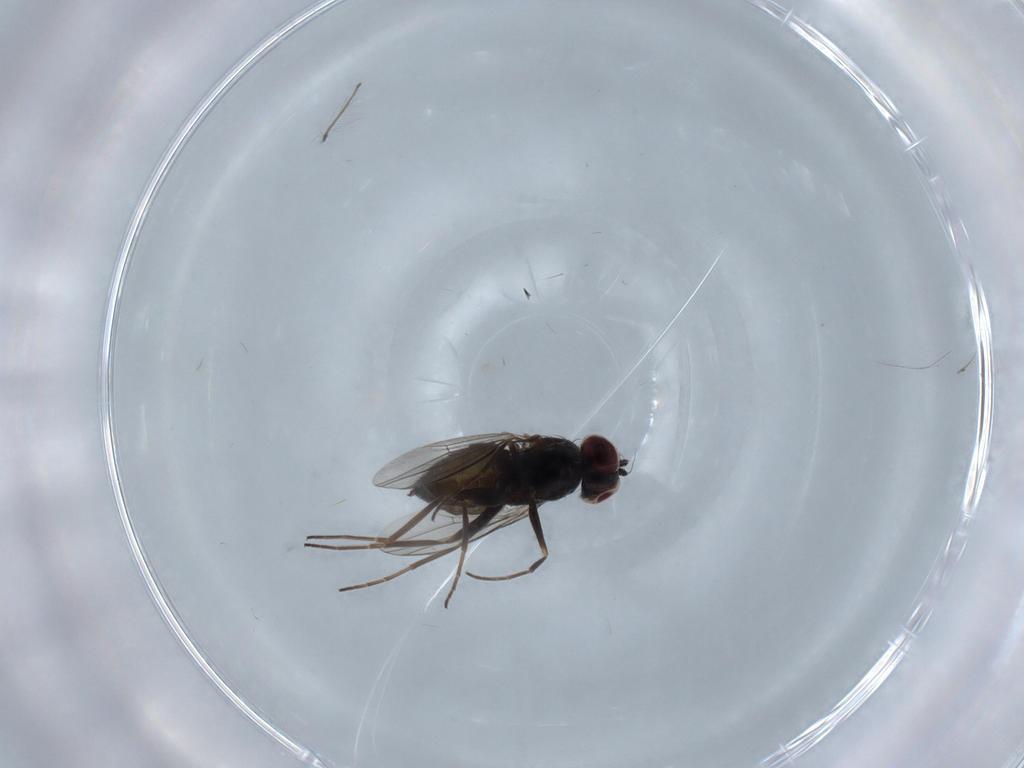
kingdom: Animalia
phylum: Arthropoda
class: Insecta
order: Diptera
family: Dolichopodidae
